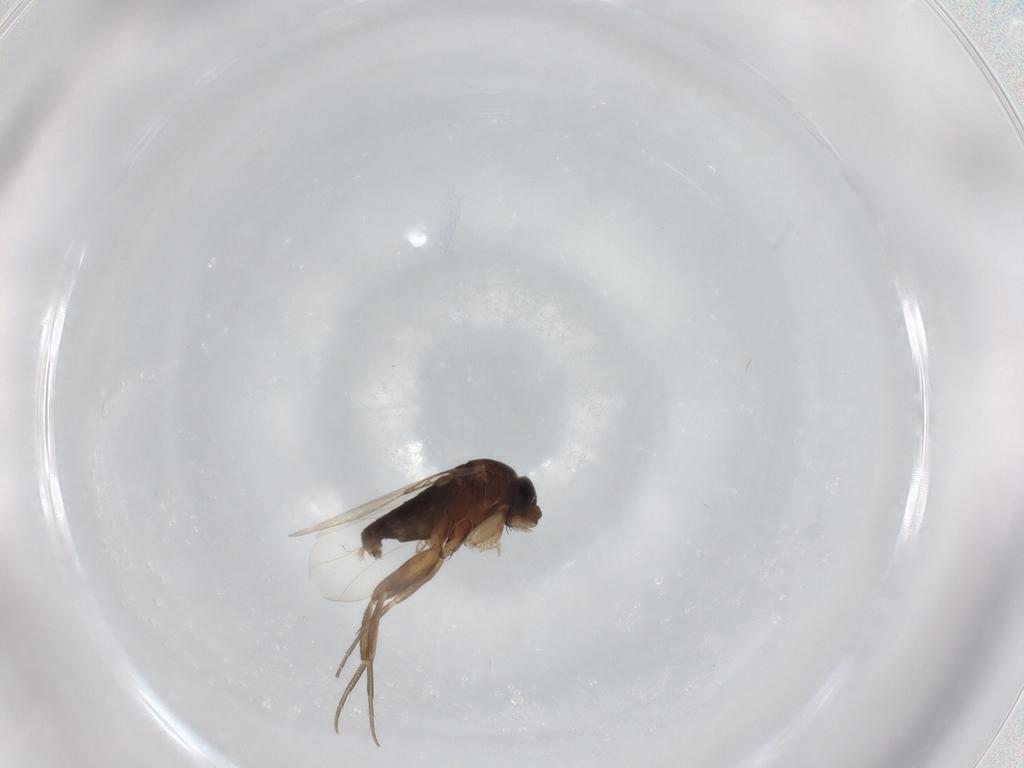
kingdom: Animalia
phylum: Arthropoda
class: Insecta
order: Diptera
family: Phoridae
